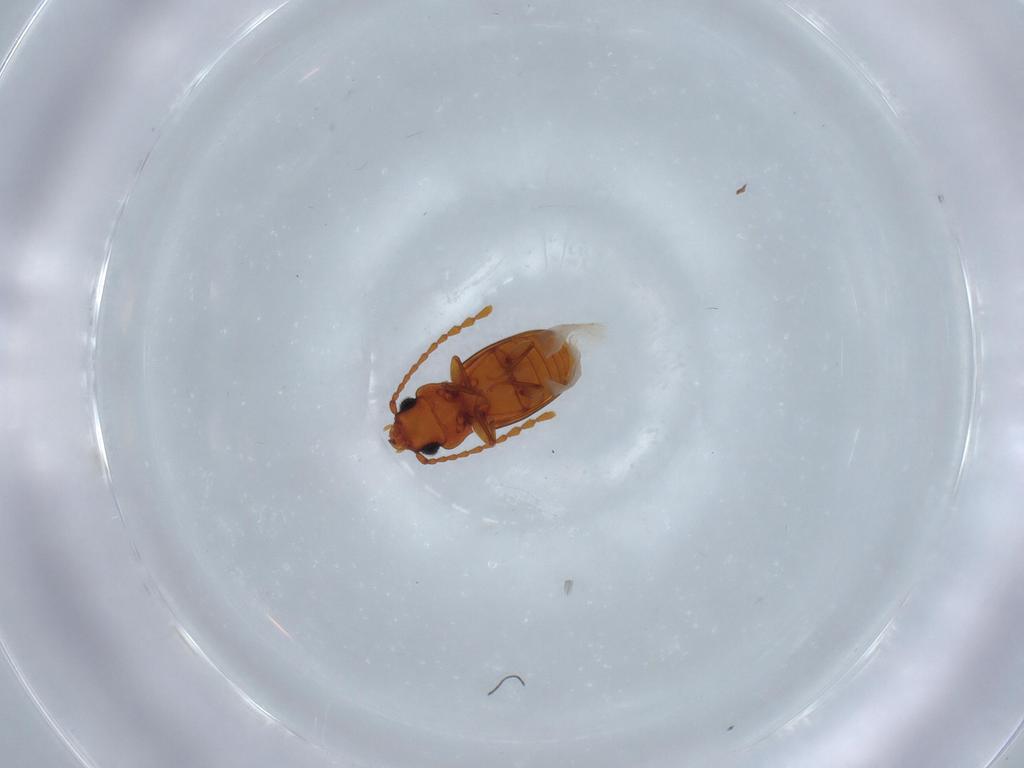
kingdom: Animalia
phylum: Arthropoda
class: Insecta
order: Coleoptera
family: Laemophloeidae
